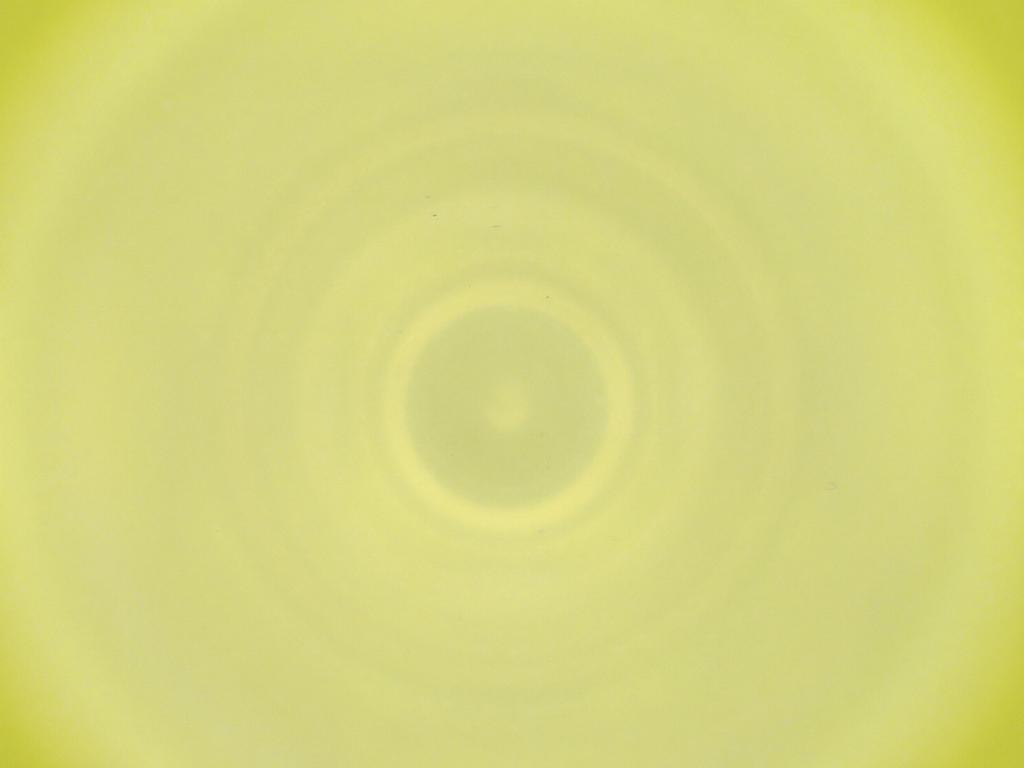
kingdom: Animalia
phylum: Arthropoda
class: Insecta
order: Diptera
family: Cecidomyiidae
